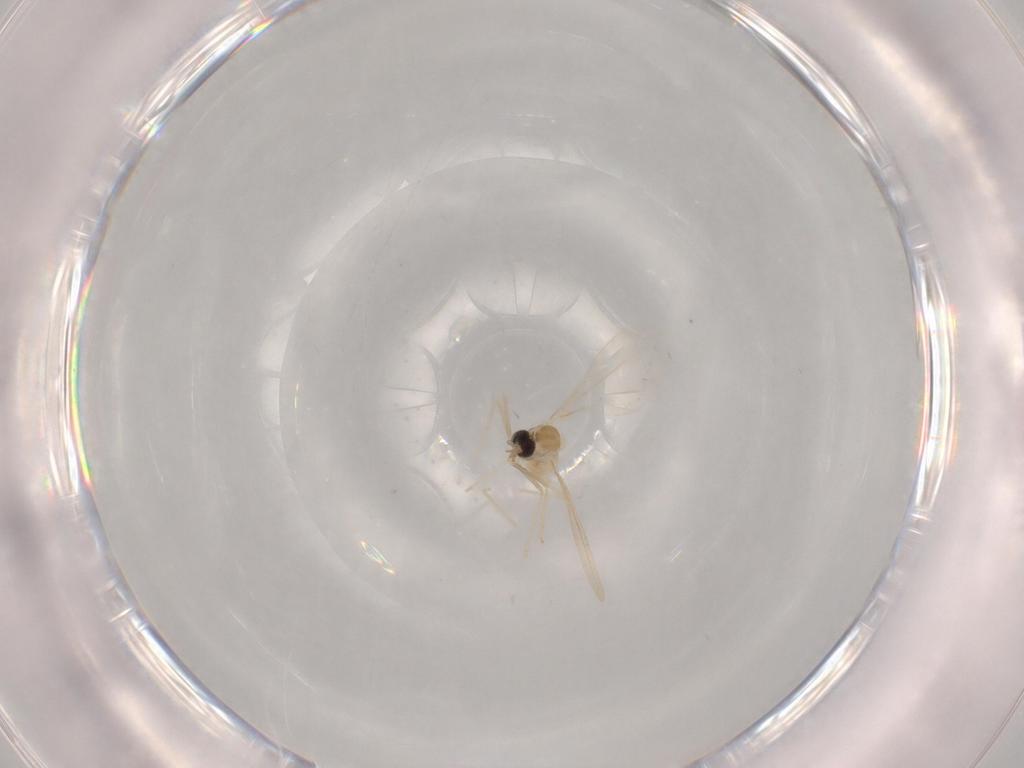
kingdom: Animalia
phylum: Arthropoda
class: Insecta
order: Diptera
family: Cecidomyiidae
